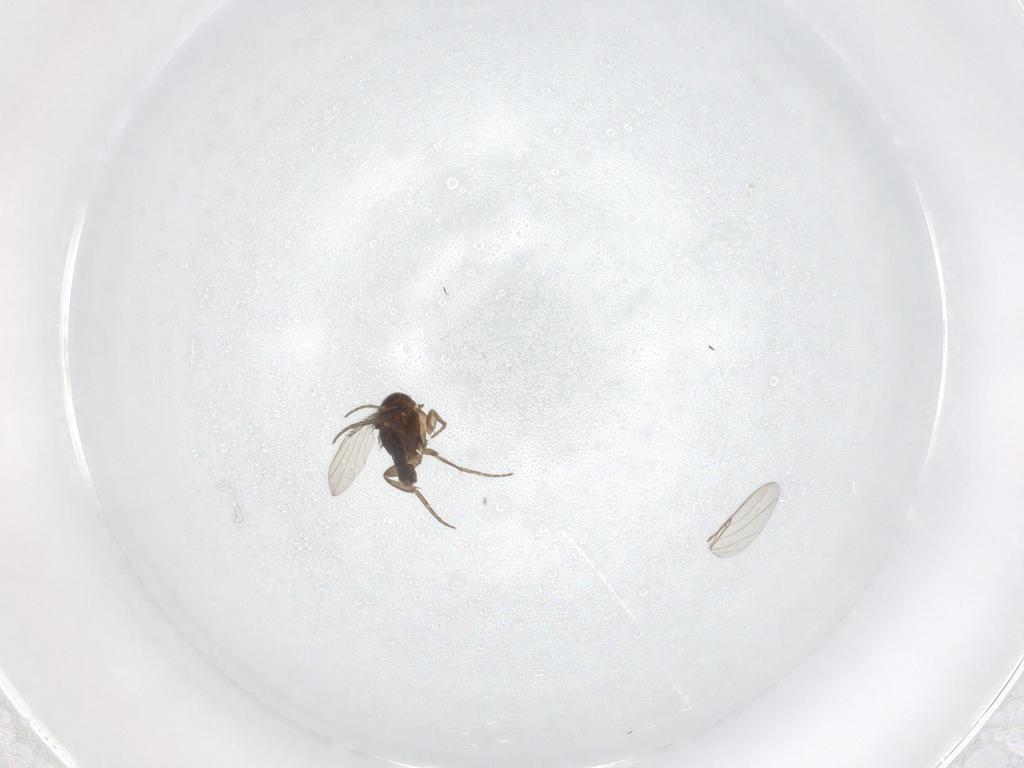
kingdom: Animalia
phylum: Arthropoda
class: Insecta
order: Diptera
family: Phoridae
